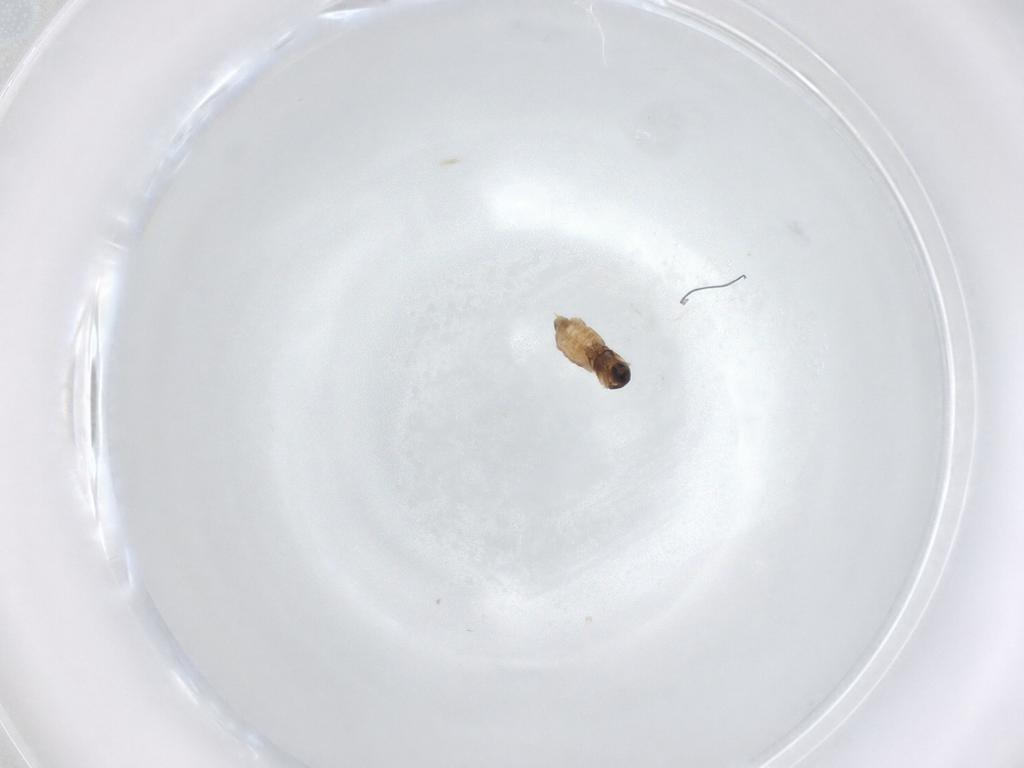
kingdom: Animalia
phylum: Arthropoda
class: Insecta
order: Diptera
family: Cecidomyiidae
